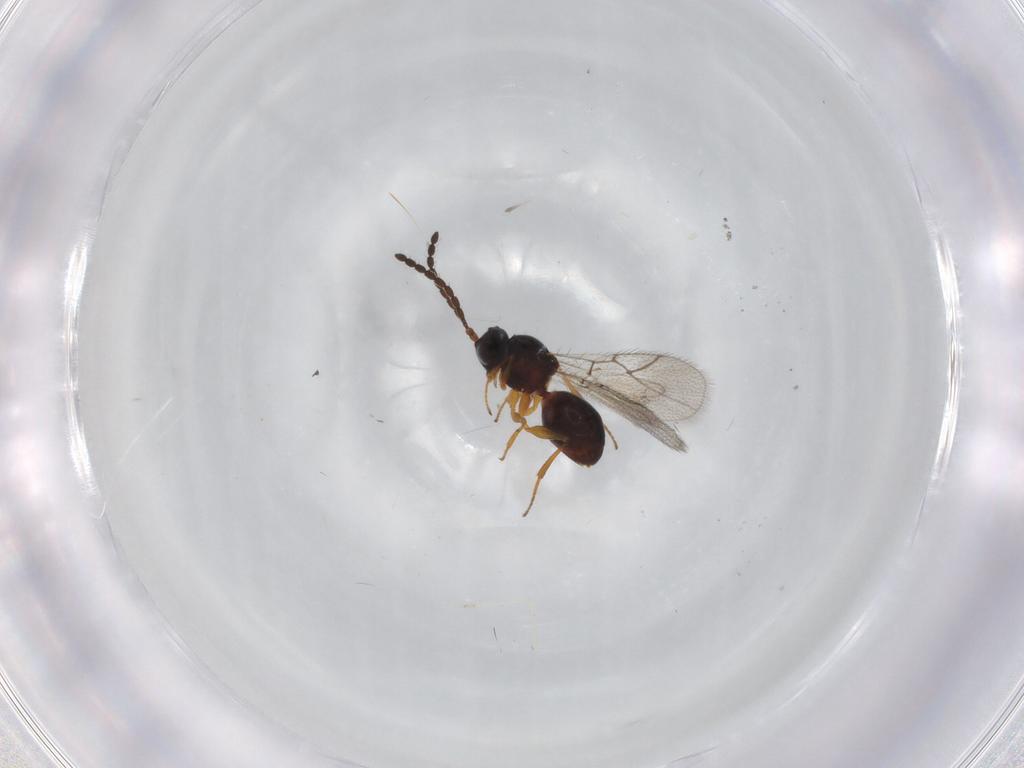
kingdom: Animalia
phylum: Arthropoda
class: Insecta
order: Hymenoptera
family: Figitidae
